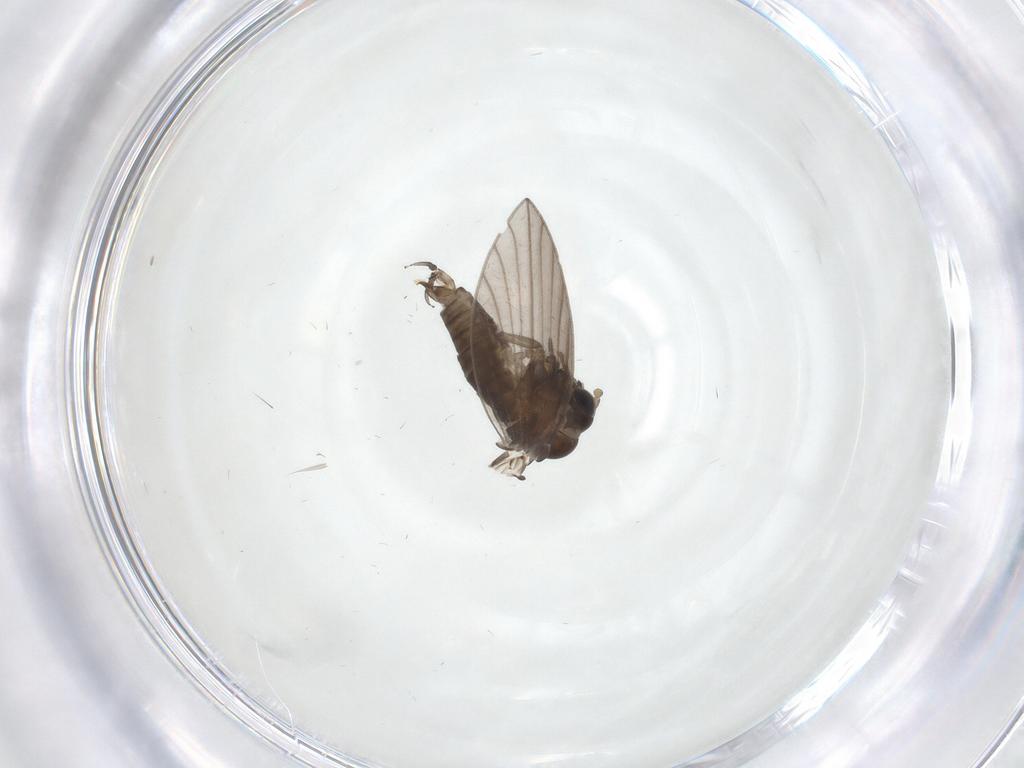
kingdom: Animalia
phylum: Arthropoda
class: Insecta
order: Diptera
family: Psychodidae
